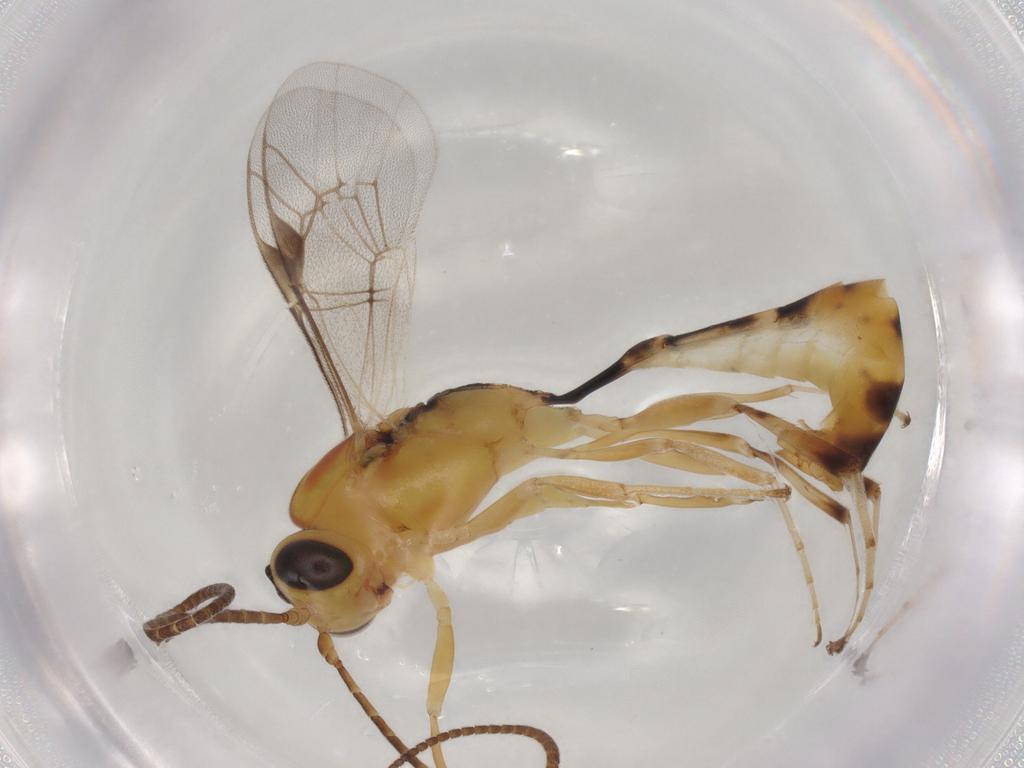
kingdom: Animalia
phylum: Arthropoda
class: Insecta
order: Hymenoptera
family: Ichneumonidae
